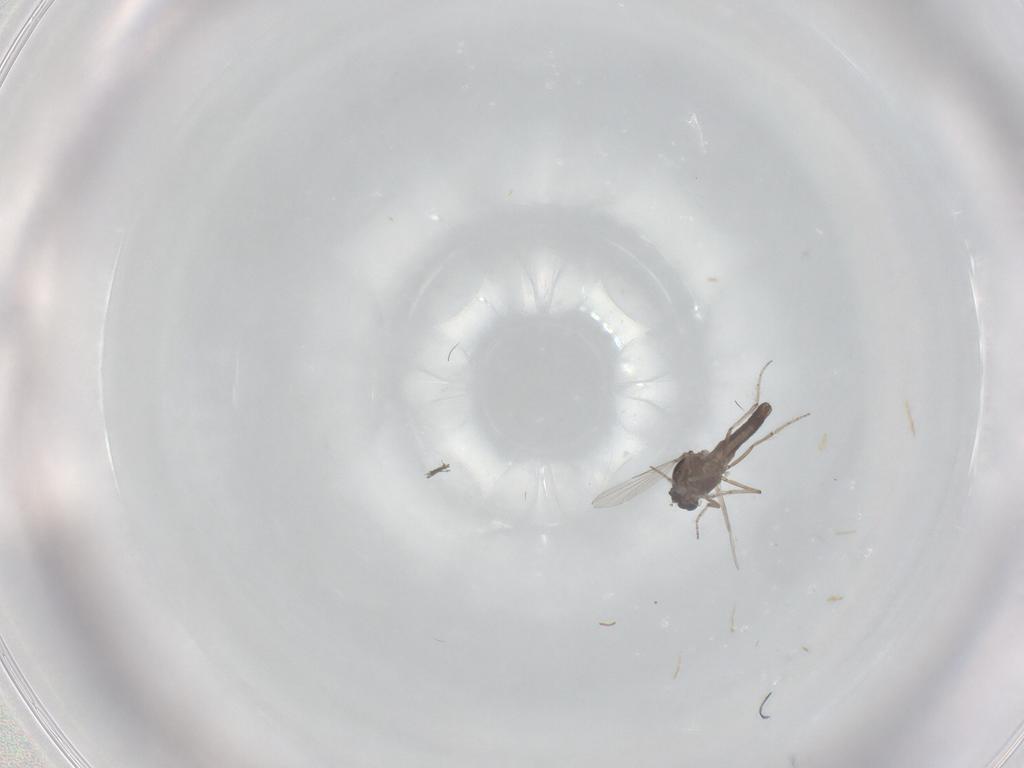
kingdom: Animalia
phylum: Arthropoda
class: Insecta
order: Diptera
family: Ceratopogonidae
